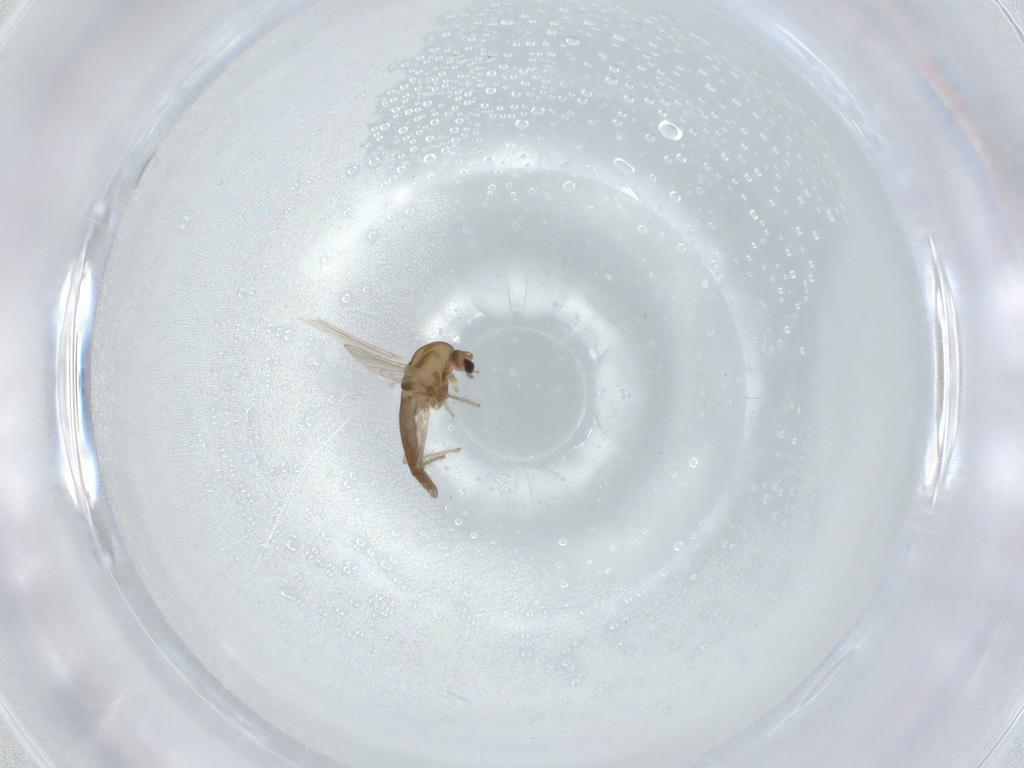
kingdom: Animalia
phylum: Arthropoda
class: Insecta
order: Diptera
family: Chironomidae
